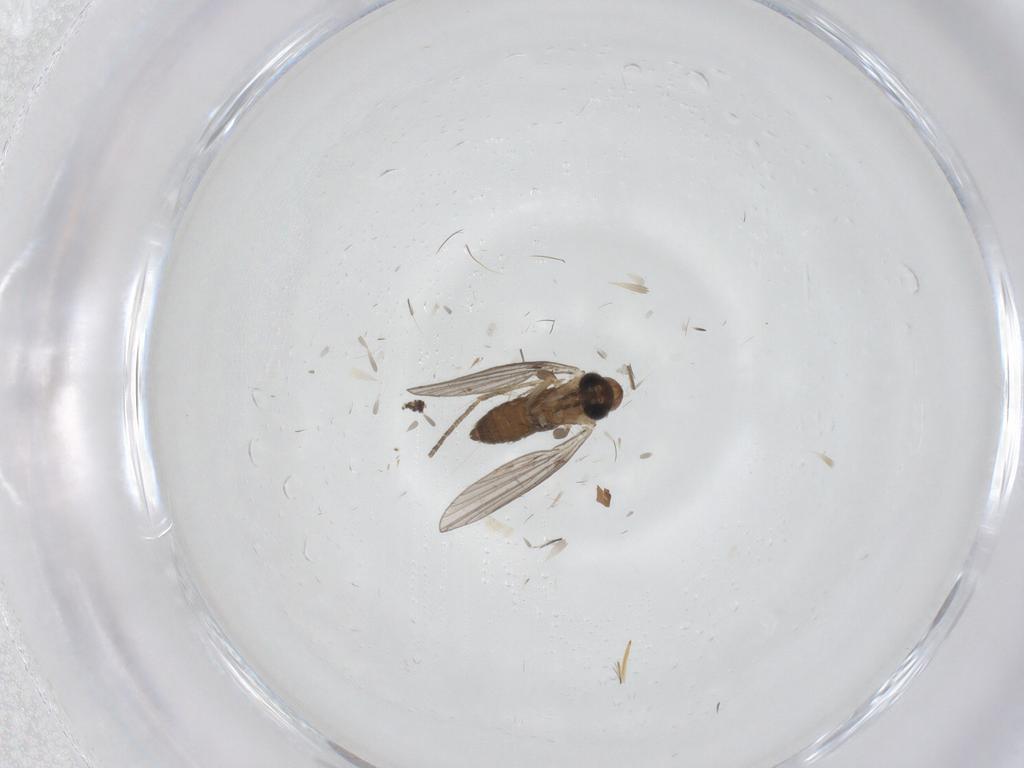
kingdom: Animalia
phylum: Arthropoda
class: Insecta
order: Diptera
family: Cecidomyiidae
